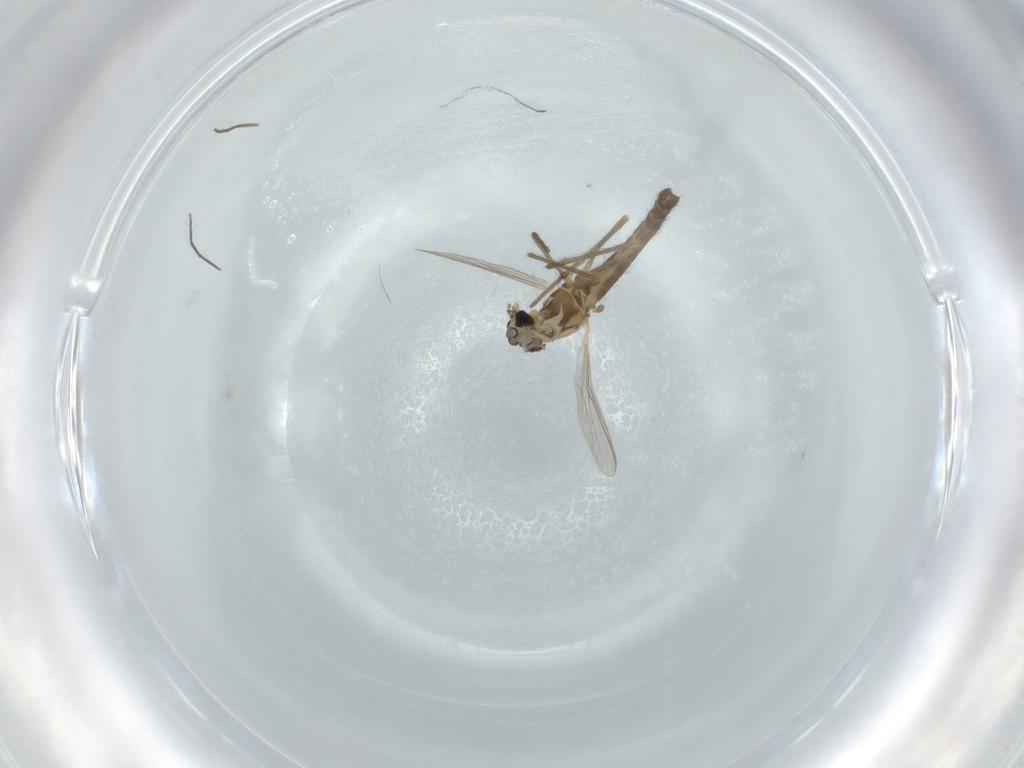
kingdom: Animalia
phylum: Arthropoda
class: Insecta
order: Diptera
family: Chironomidae
